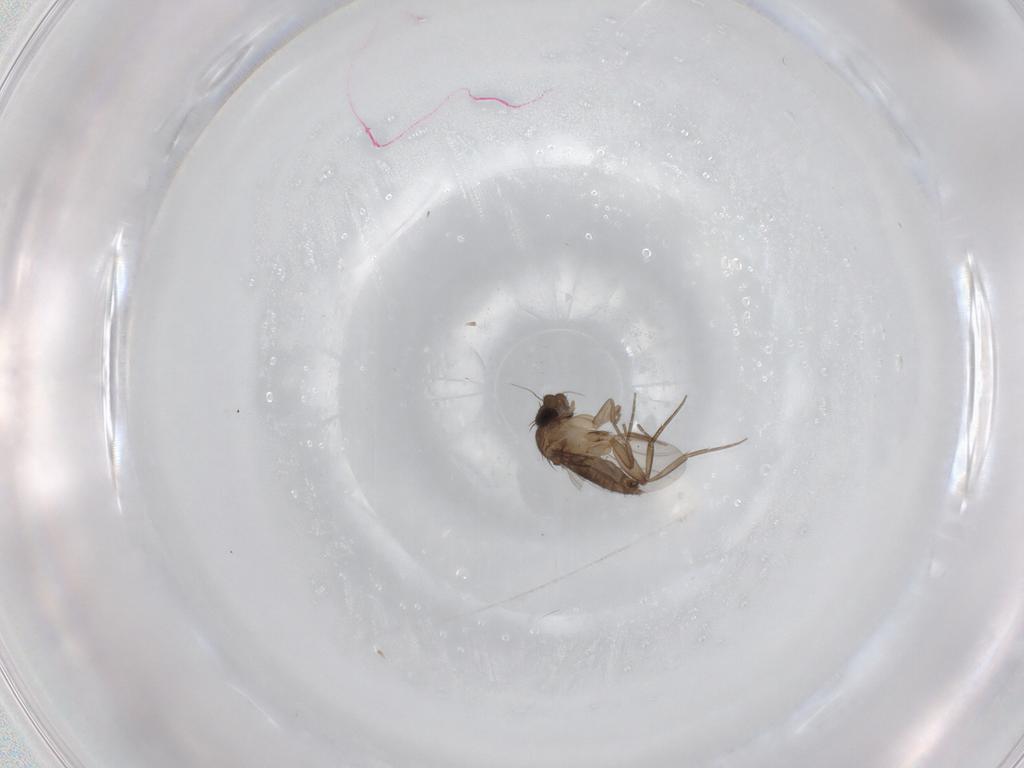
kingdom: Animalia
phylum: Arthropoda
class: Insecta
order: Diptera
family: Phoridae
